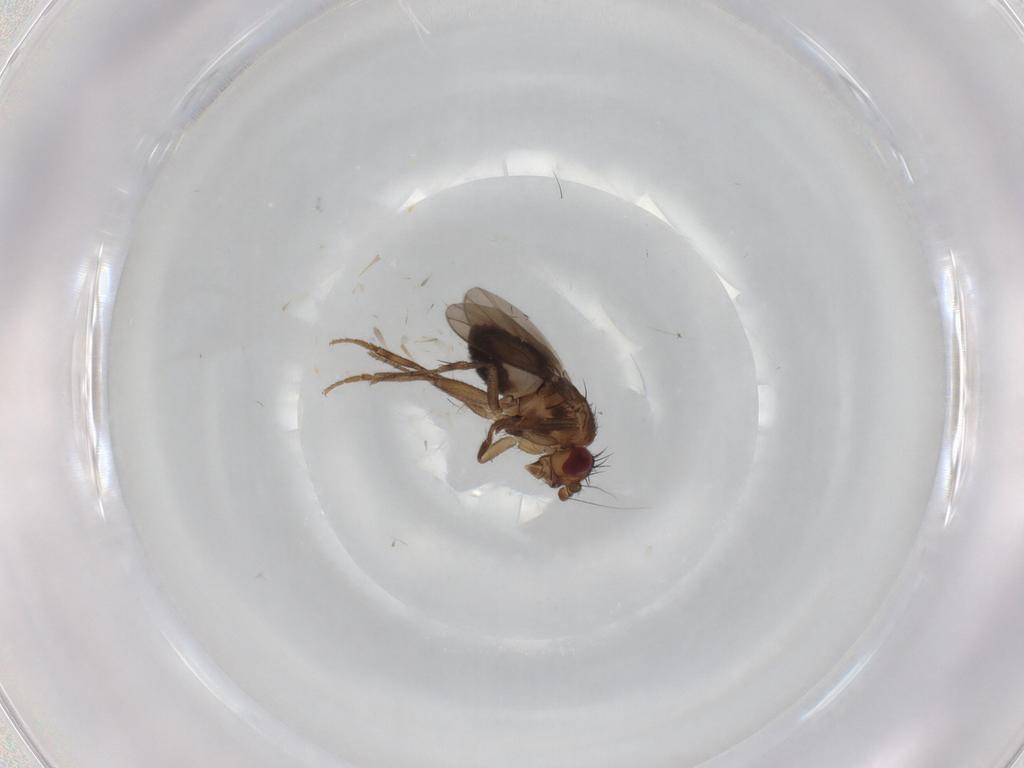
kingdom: Animalia
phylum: Arthropoda
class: Insecta
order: Diptera
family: Sphaeroceridae
